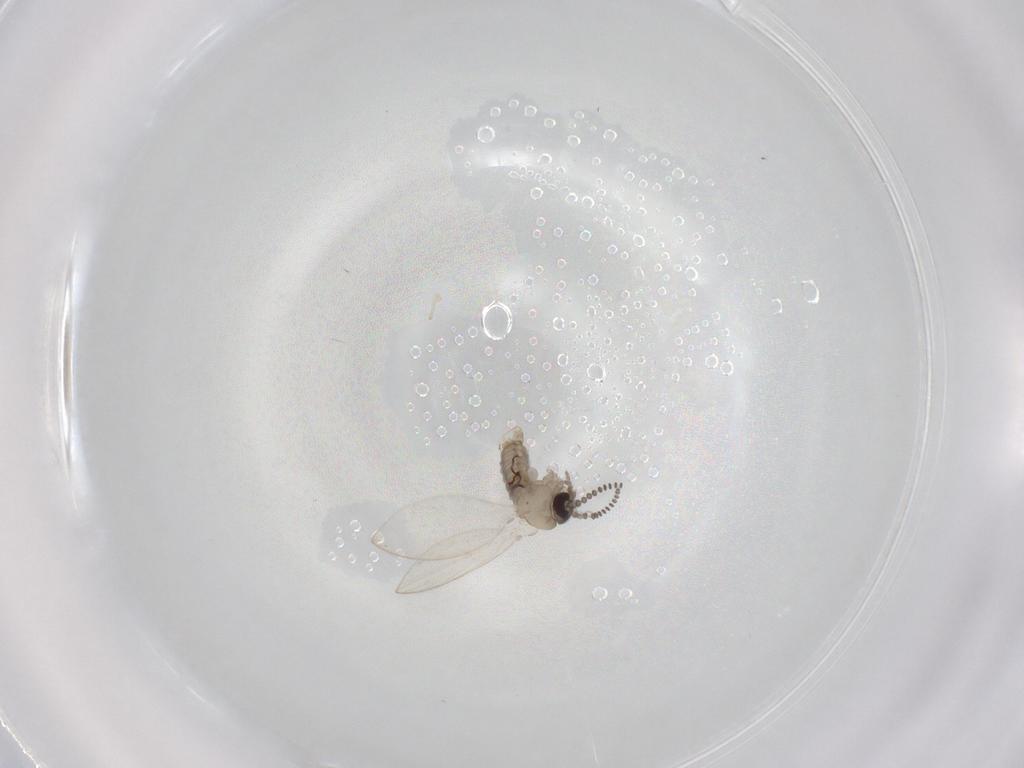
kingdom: Animalia
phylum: Arthropoda
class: Insecta
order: Diptera
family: Psychodidae
